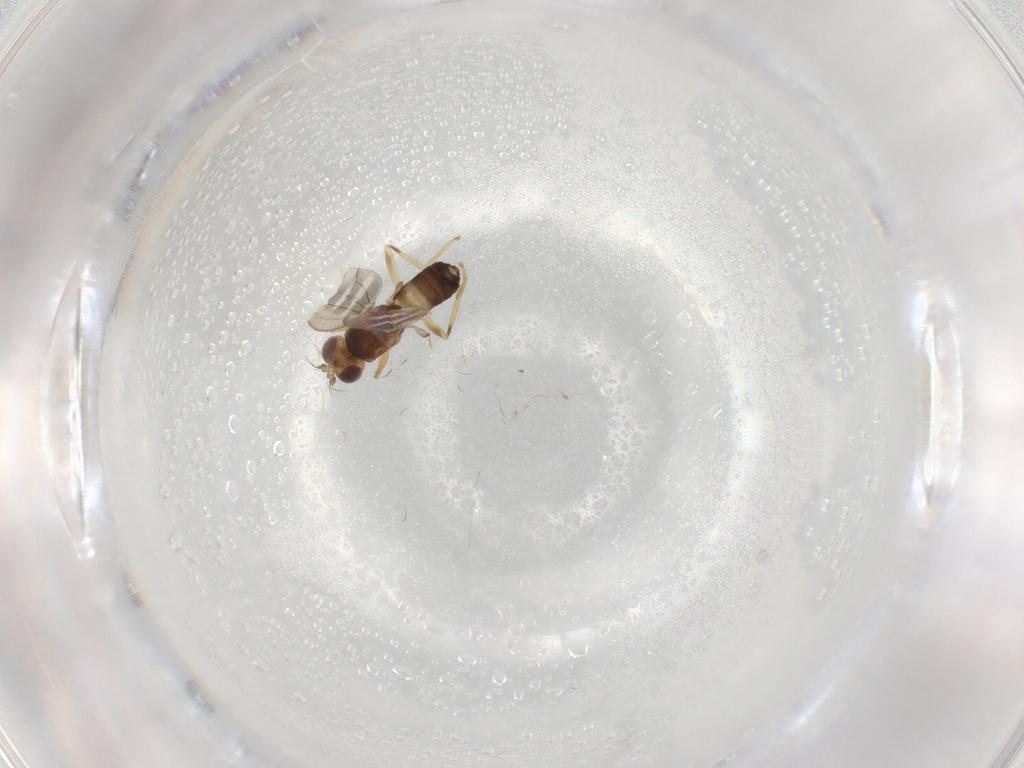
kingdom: Animalia
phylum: Arthropoda
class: Insecta
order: Diptera
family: Periscelididae
